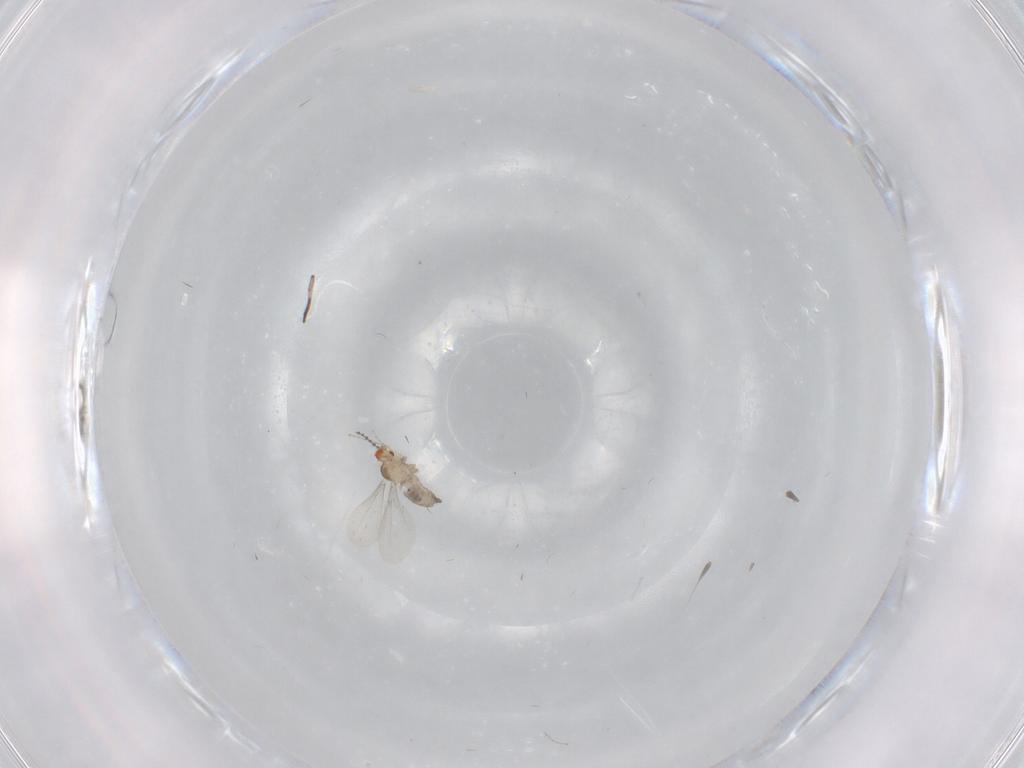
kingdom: Animalia
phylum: Arthropoda
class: Insecta
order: Diptera
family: Cecidomyiidae
